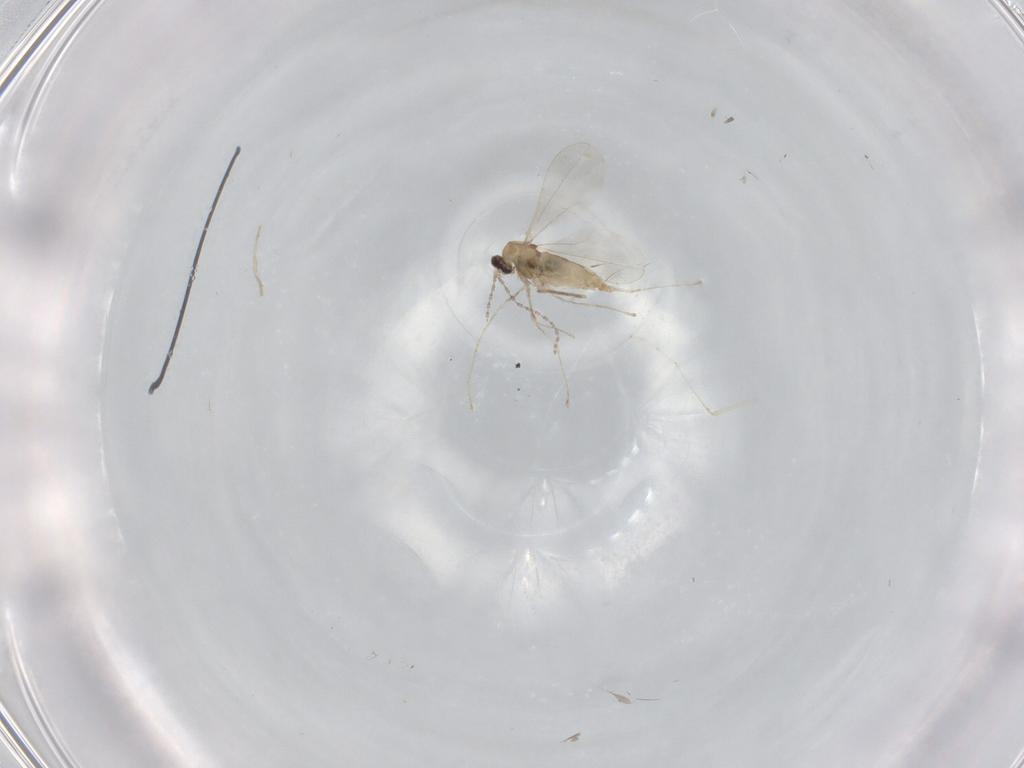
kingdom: Animalia
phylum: Arthropoda
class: Insecta
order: Diptera
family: Cecidomyiidae
